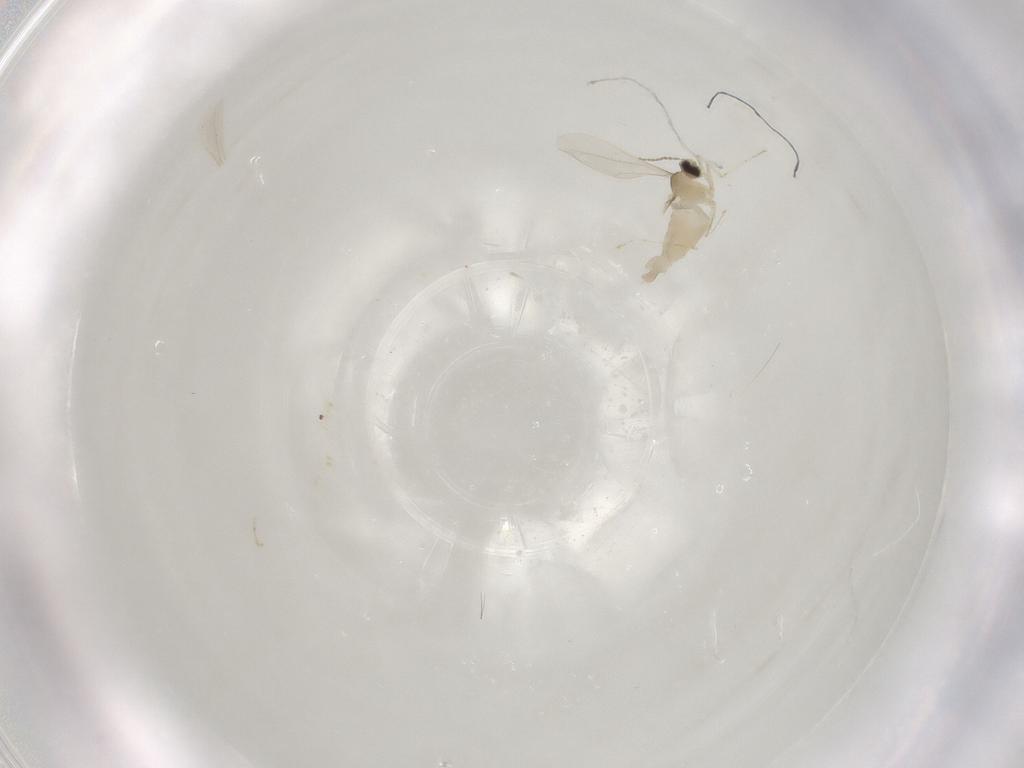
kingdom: Animalia
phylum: Arthropoda
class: Insecta
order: Diptera
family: Cecidomyiidae
